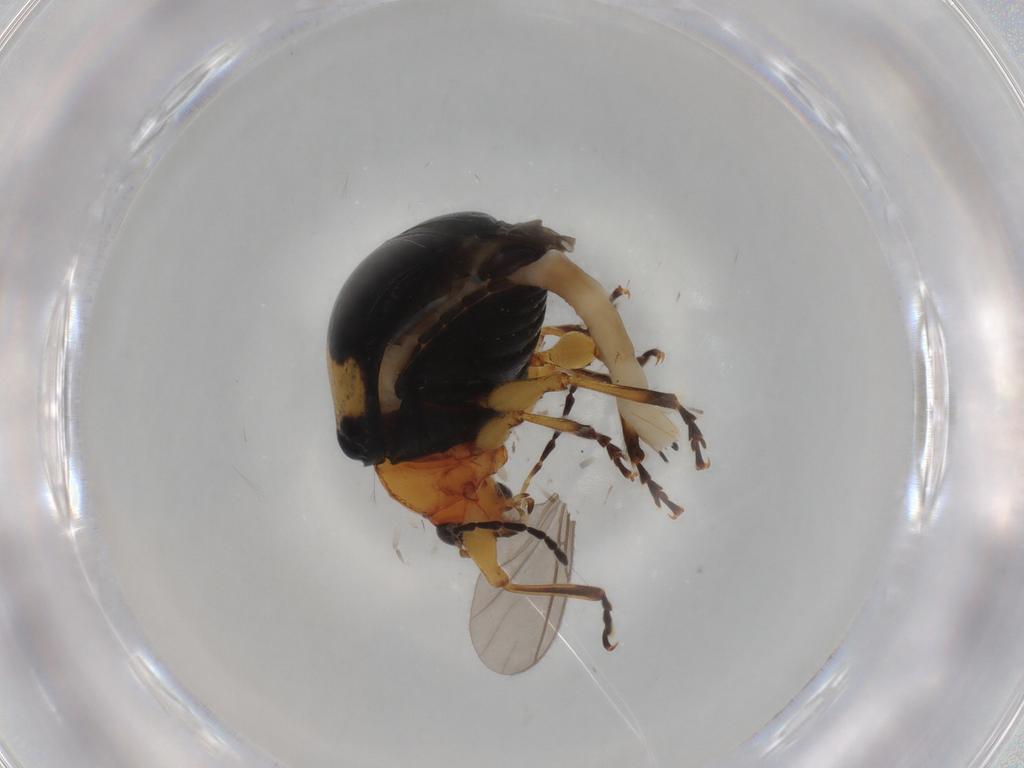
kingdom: Animalia
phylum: Arthropoda
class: Insecta
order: Coleoptera
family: Chrysomelidae
